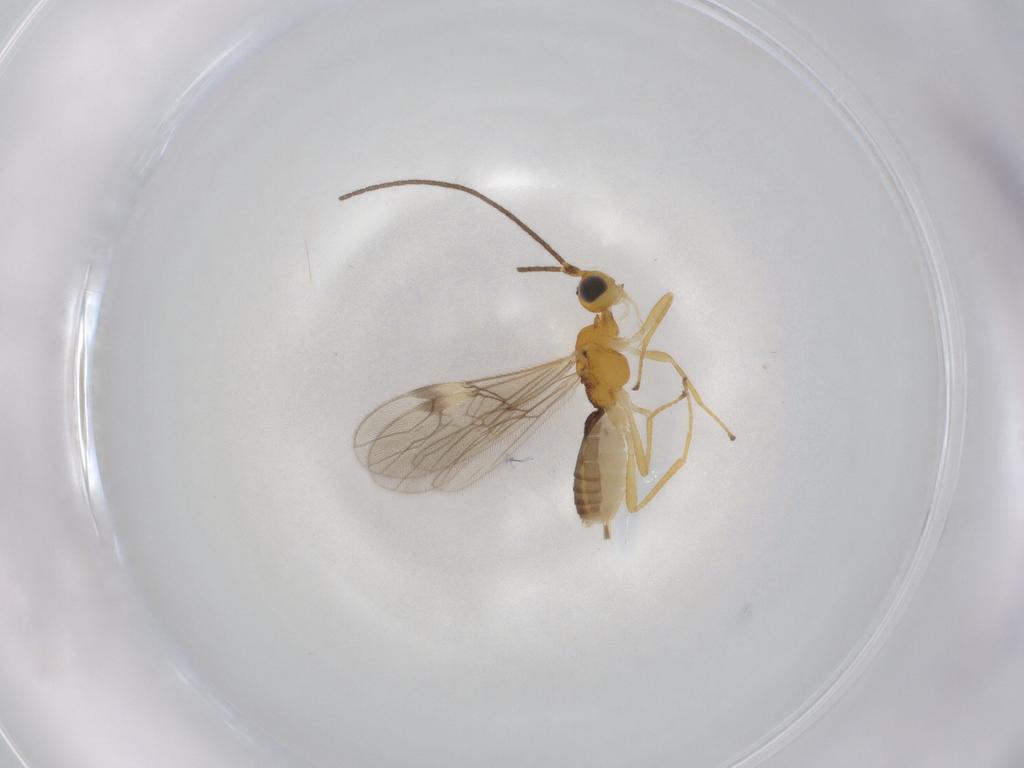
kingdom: Animalia
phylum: Arthropoda
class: Insecta
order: Hymenoptera
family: Braconidae
